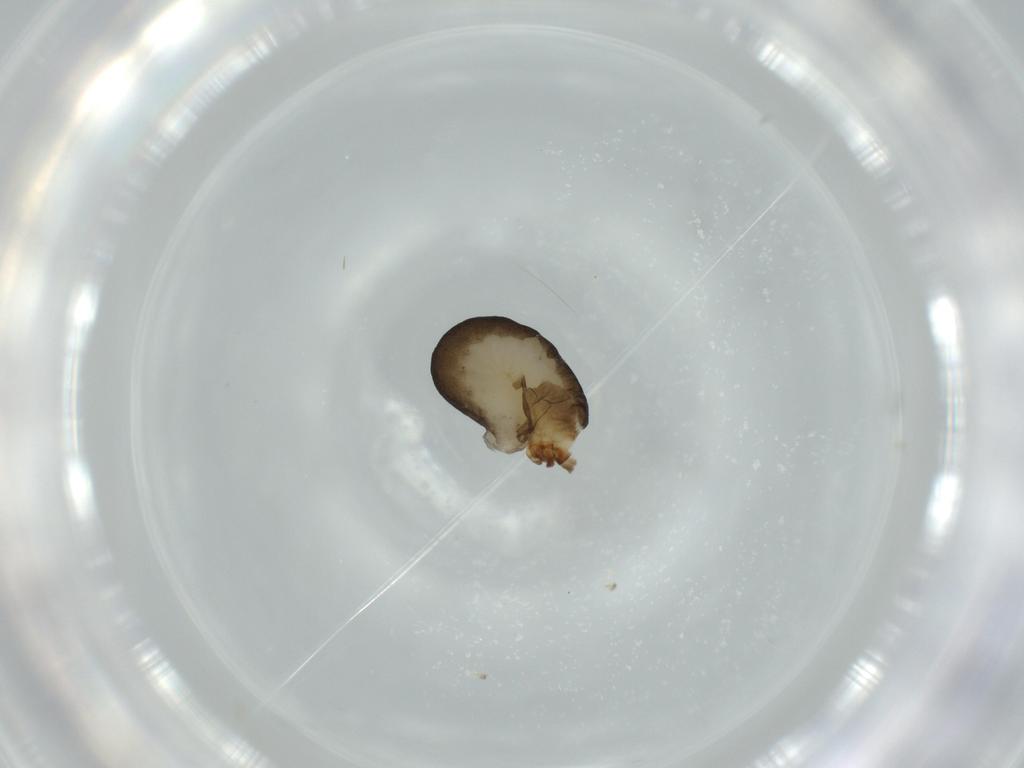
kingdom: Animalia
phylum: Arthropoda
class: Insecta
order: Hymenoptera
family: Dryinidae
